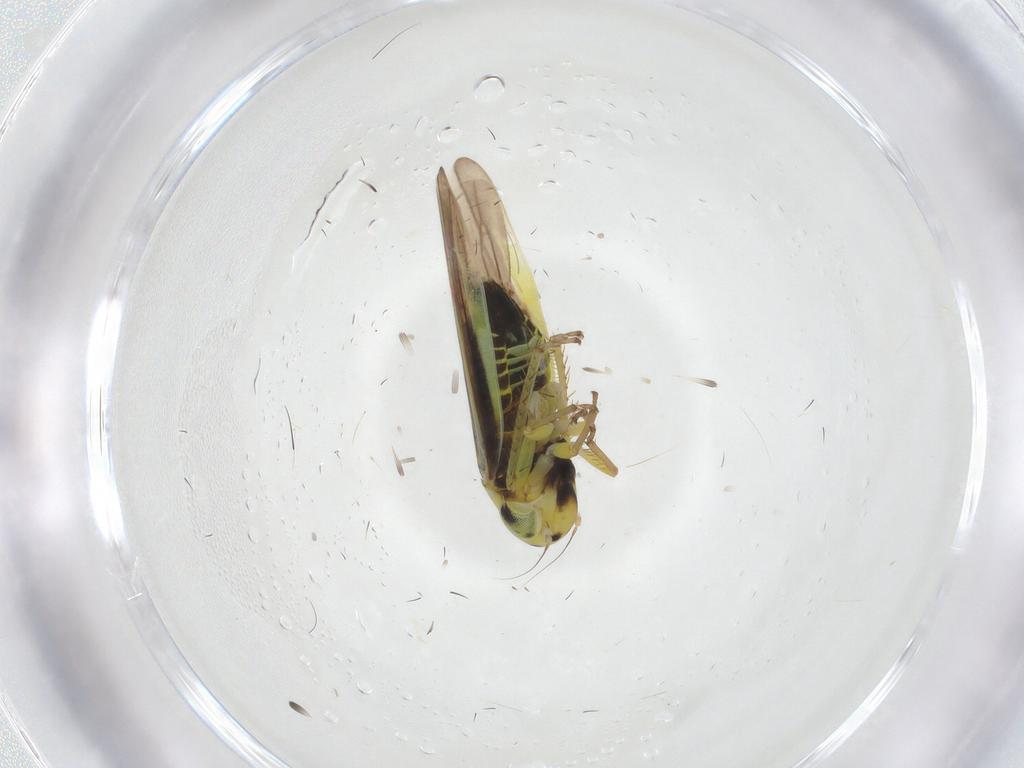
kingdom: Animalia
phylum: Arthropoda
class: Insecta
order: Hemiptera
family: Cicadellidae
